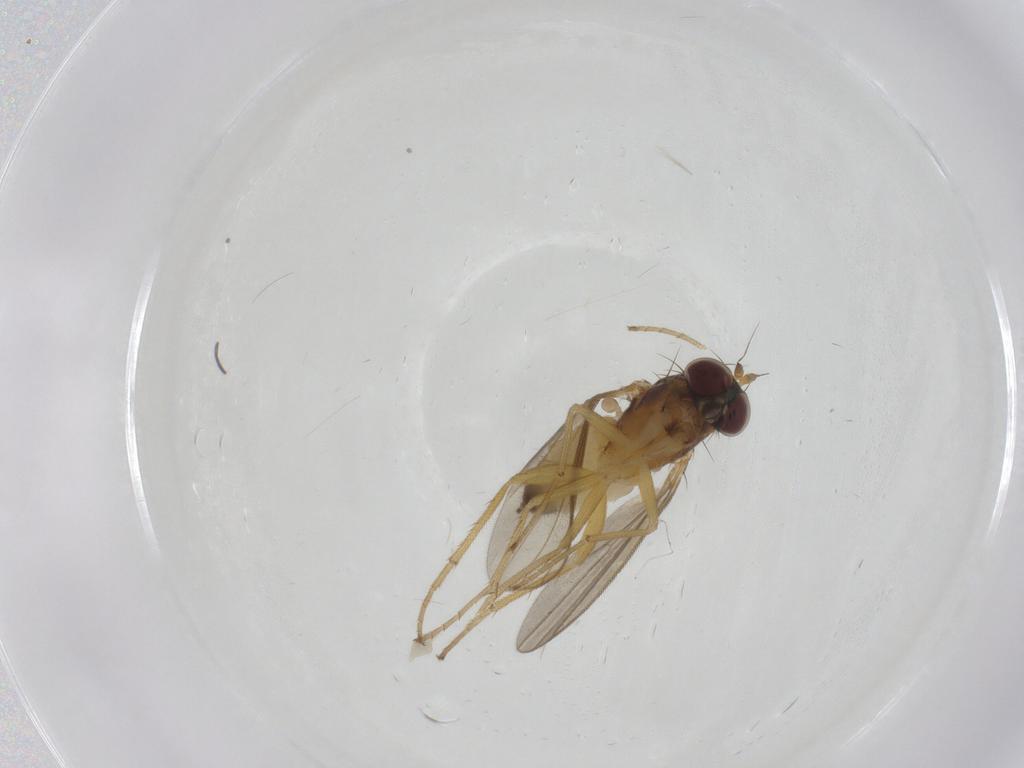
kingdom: Animalia
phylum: Arthropoda
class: Insecta
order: Diptera
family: Dolichopodidae
